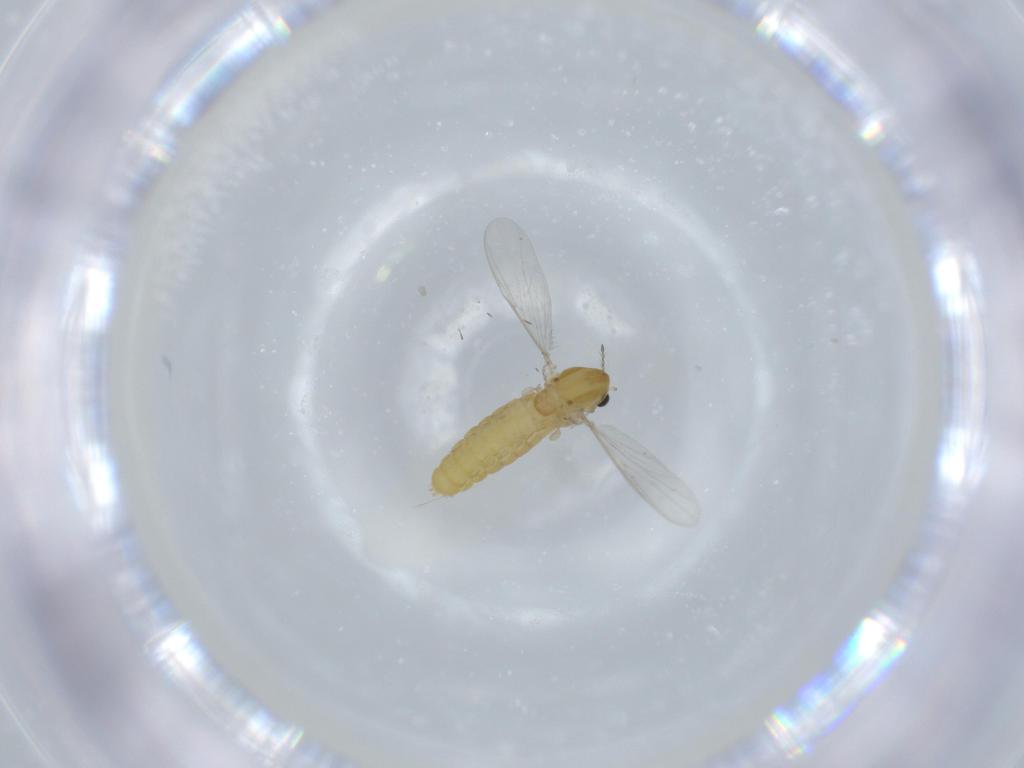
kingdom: Animalia
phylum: Arthropoda
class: Insecta
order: Diptera
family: Chironomidae
